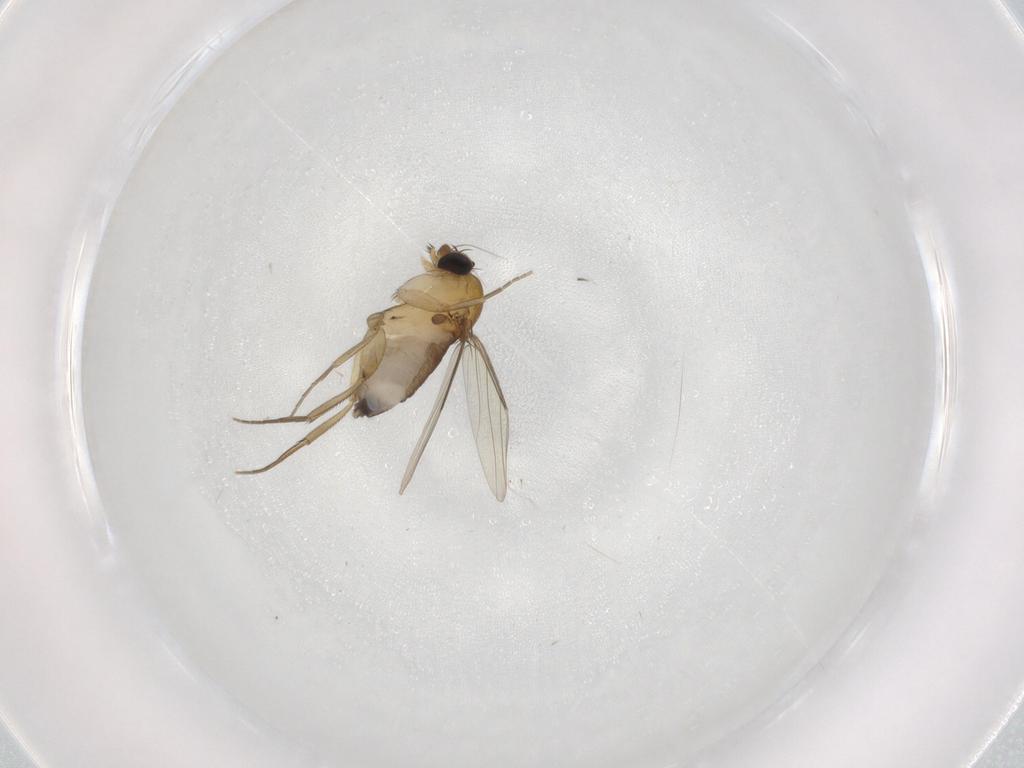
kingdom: Animalia
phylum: Arthropoda
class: Insecta
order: Diptera
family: Phoridae
